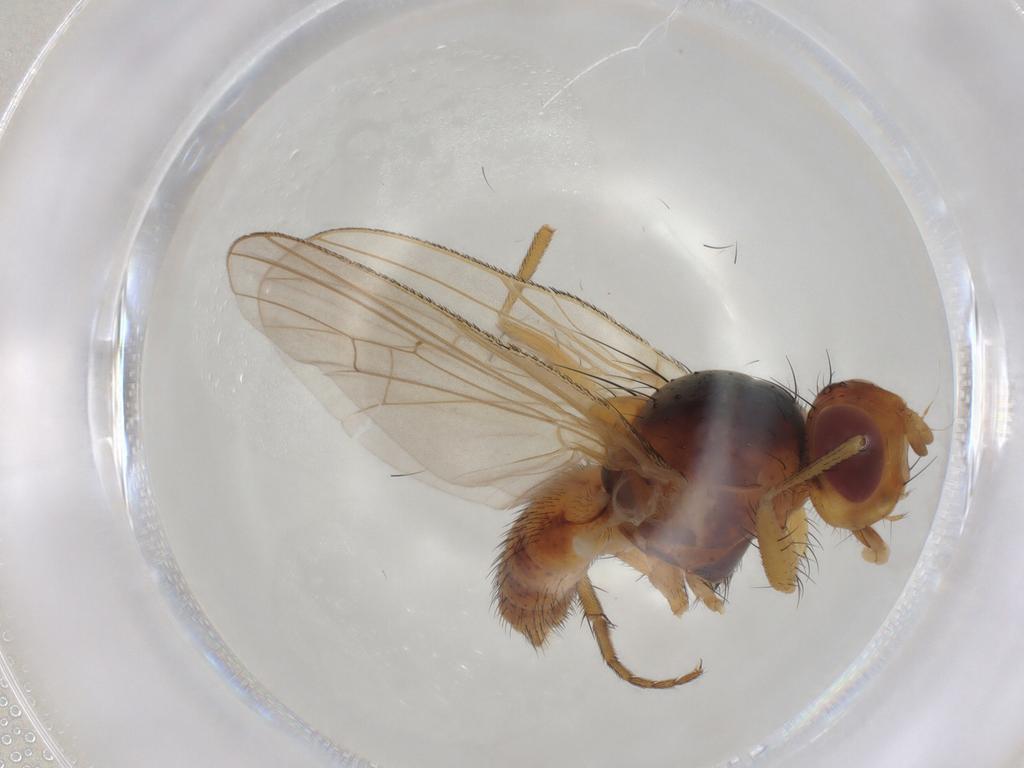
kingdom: Animalia
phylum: Arthropoda
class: Insecta
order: Diptera
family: Anthomyiidae
